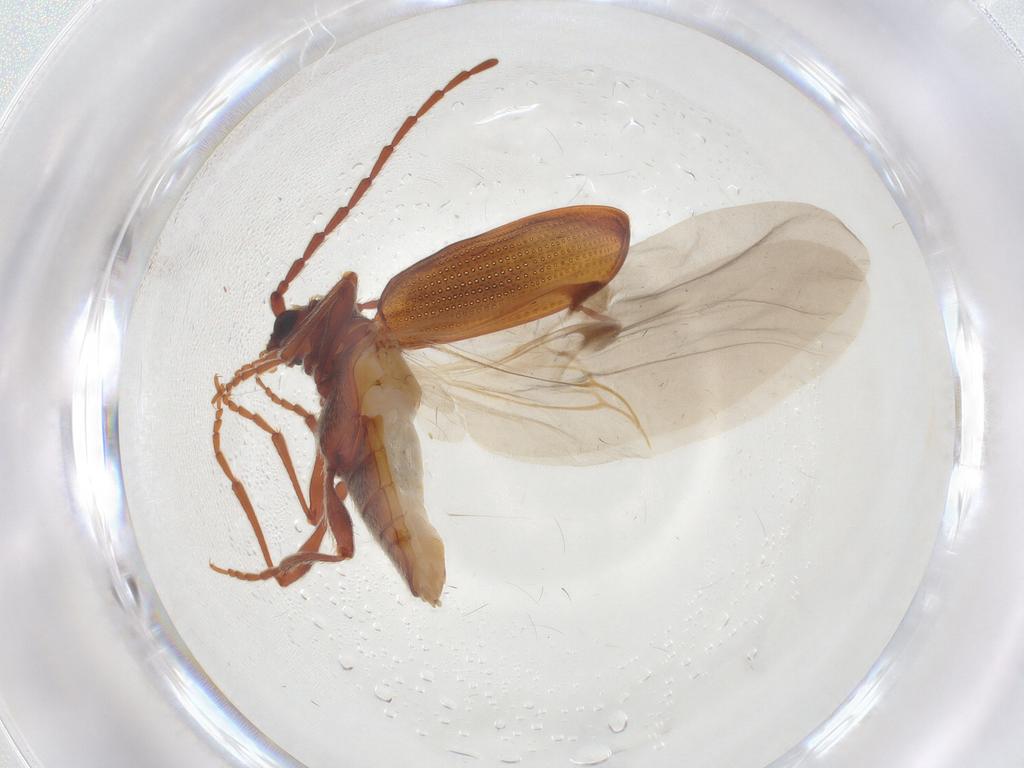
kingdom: Animalia
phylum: Arthropoda
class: Insecta
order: Coleoptera
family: Ptinidae
